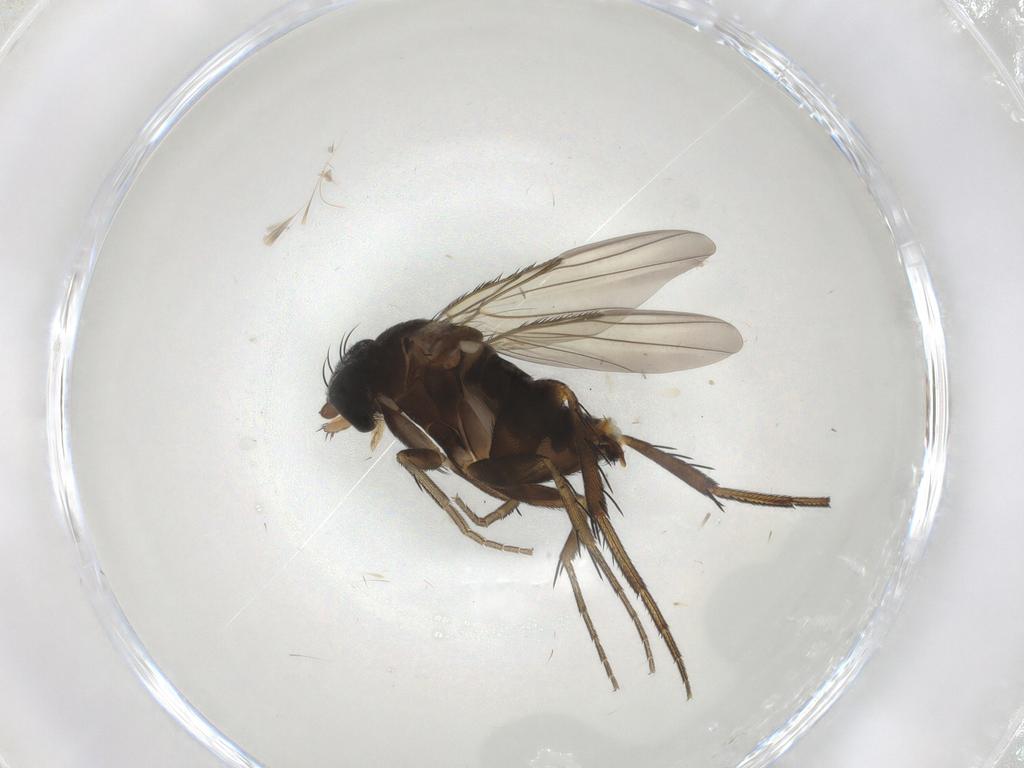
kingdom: Animalia
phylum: Arthropoda
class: Insecta
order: Diptera
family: Phoridae
